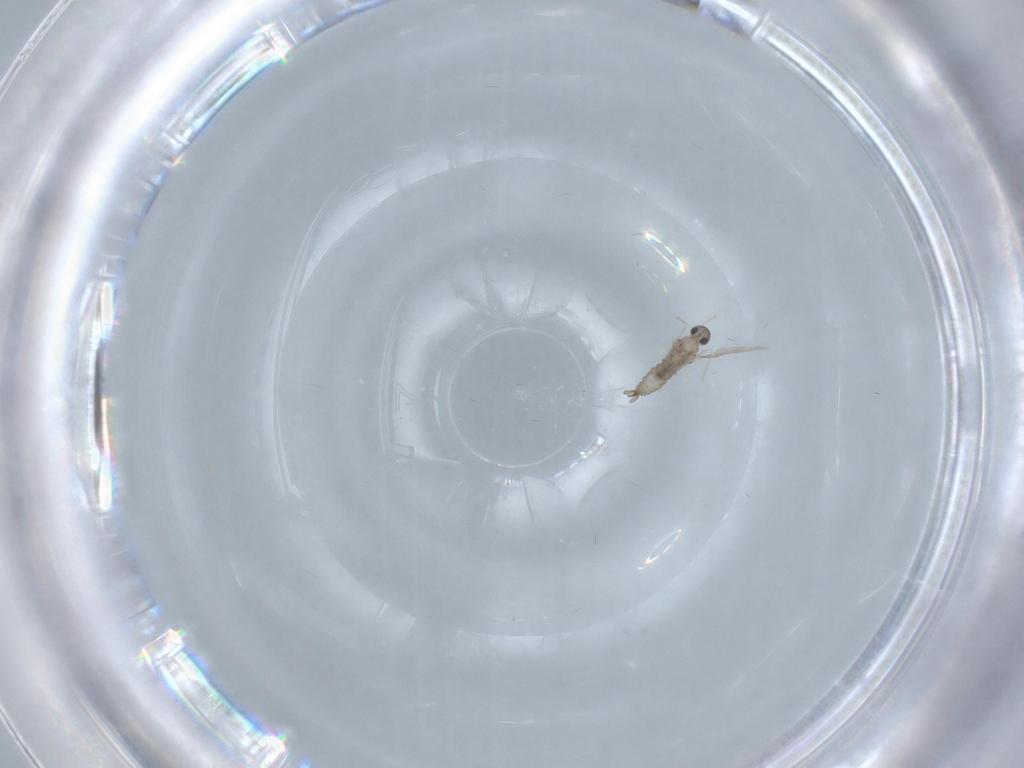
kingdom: Animalia
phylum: Arthropoda
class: Insecta
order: Diptera
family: Cecidomyiidae
